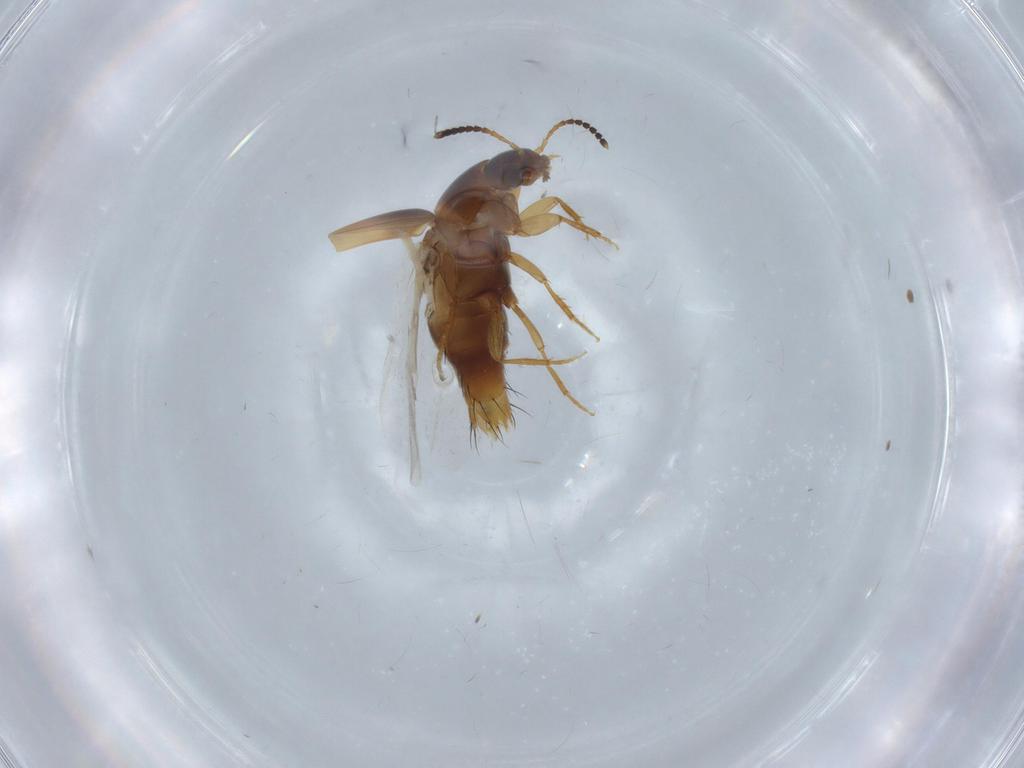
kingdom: Animalia
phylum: Arthropoda
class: Insecta
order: Coleoptera
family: Staphylinidae
